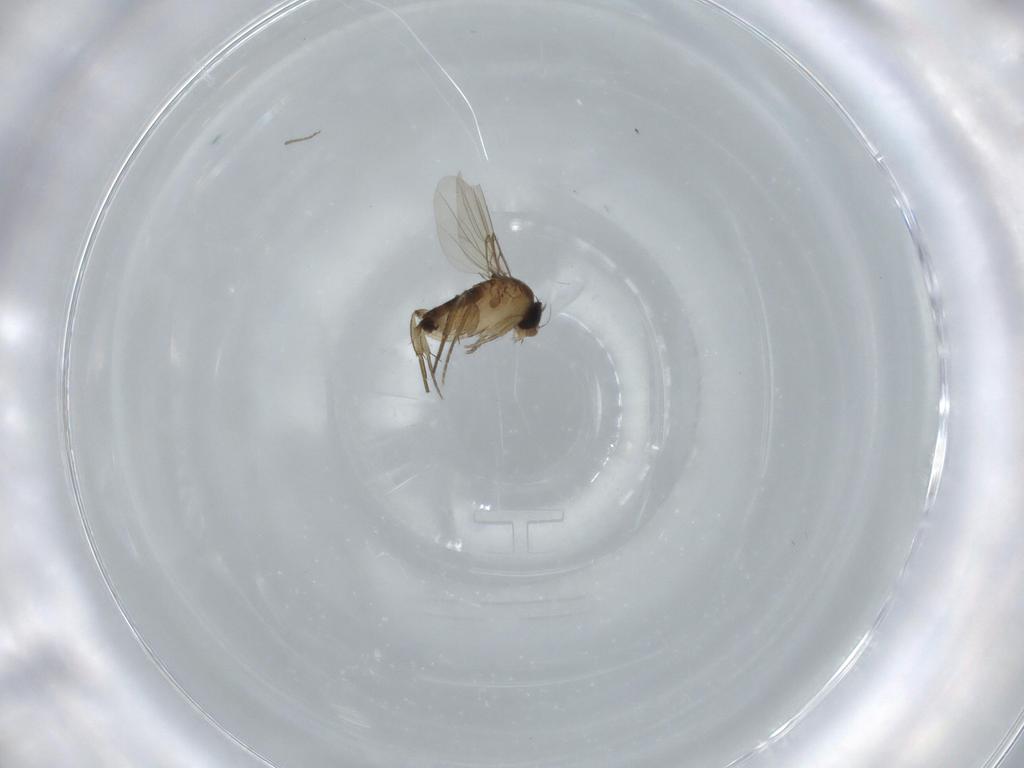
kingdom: Animalia
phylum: Arthropoda
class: Insecta
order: Diptera
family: Phoridae
